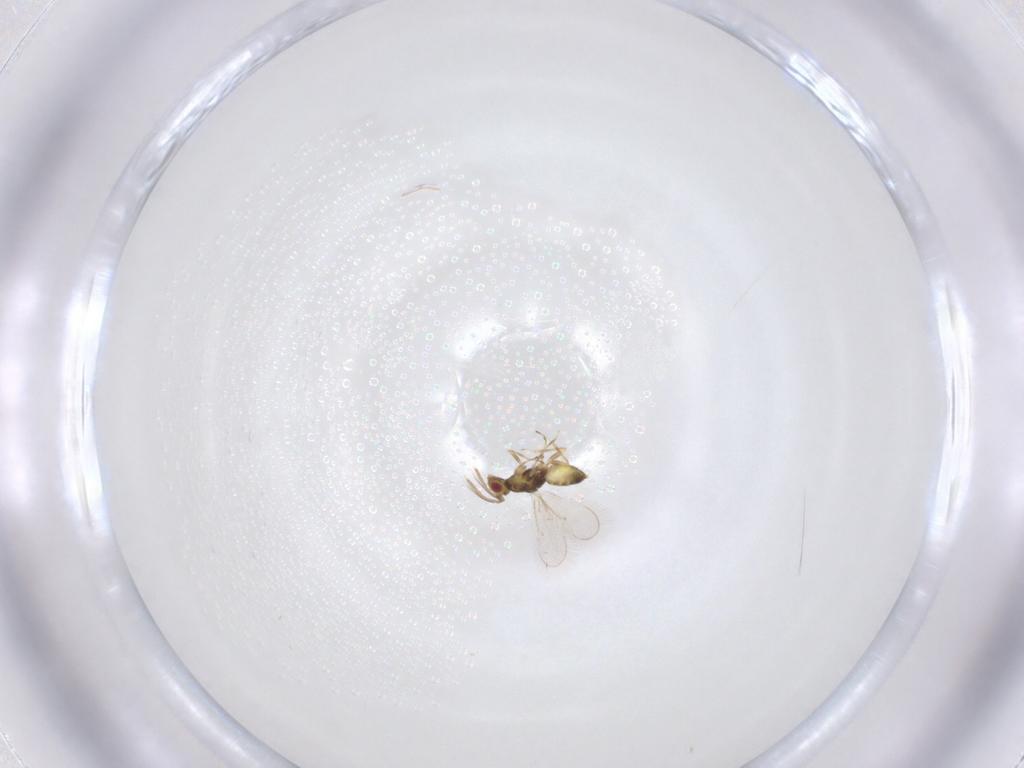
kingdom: Animalia
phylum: Arthropoda
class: Insecta
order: Hymenoptera
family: Eulophidae
